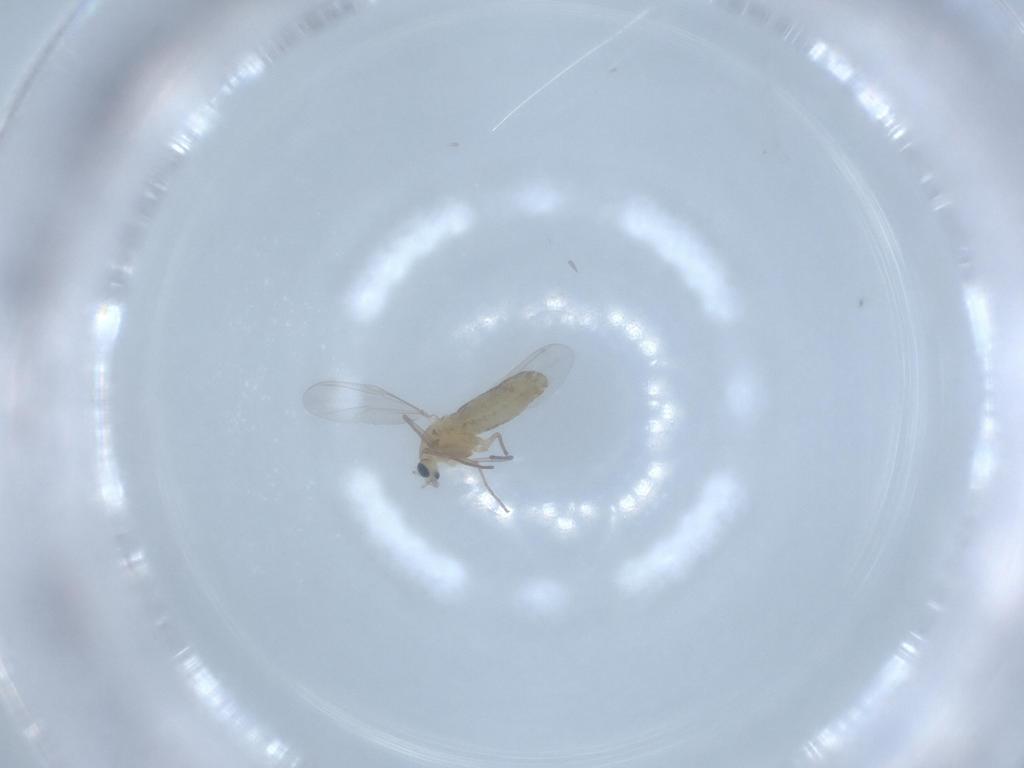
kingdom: Animalia
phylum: Arthropoda
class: Insecta
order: Diptera
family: Chironomidae
